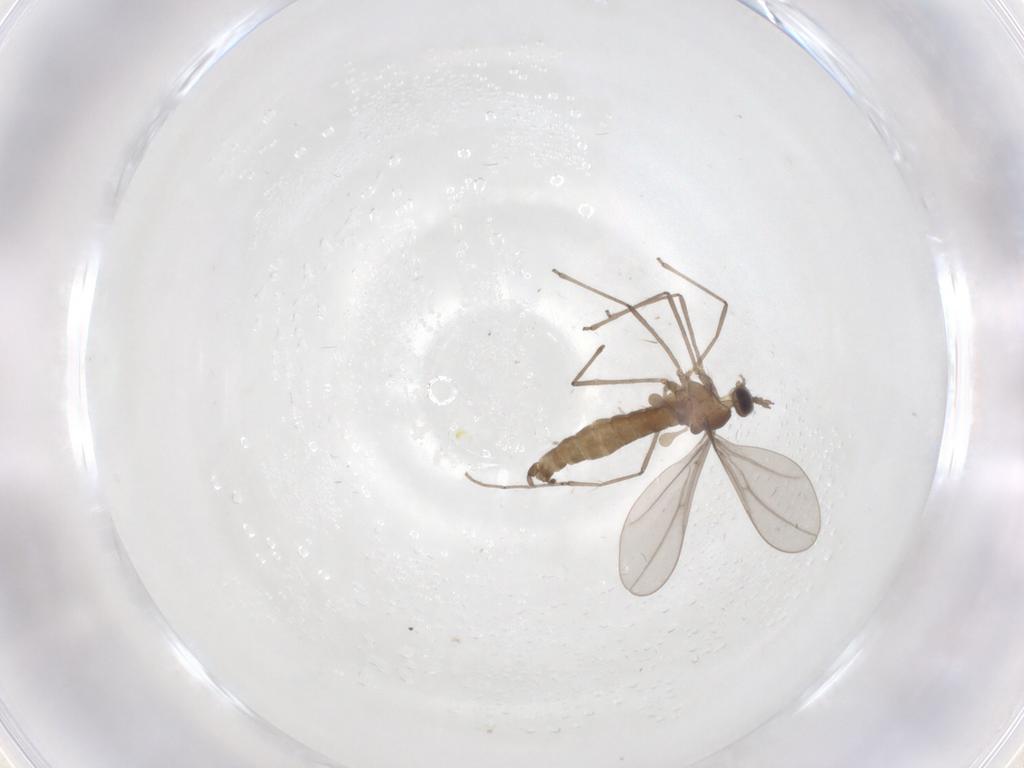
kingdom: Animalia
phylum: Arthropoda
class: Insecta
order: Diptera
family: Cecidomyiidae
